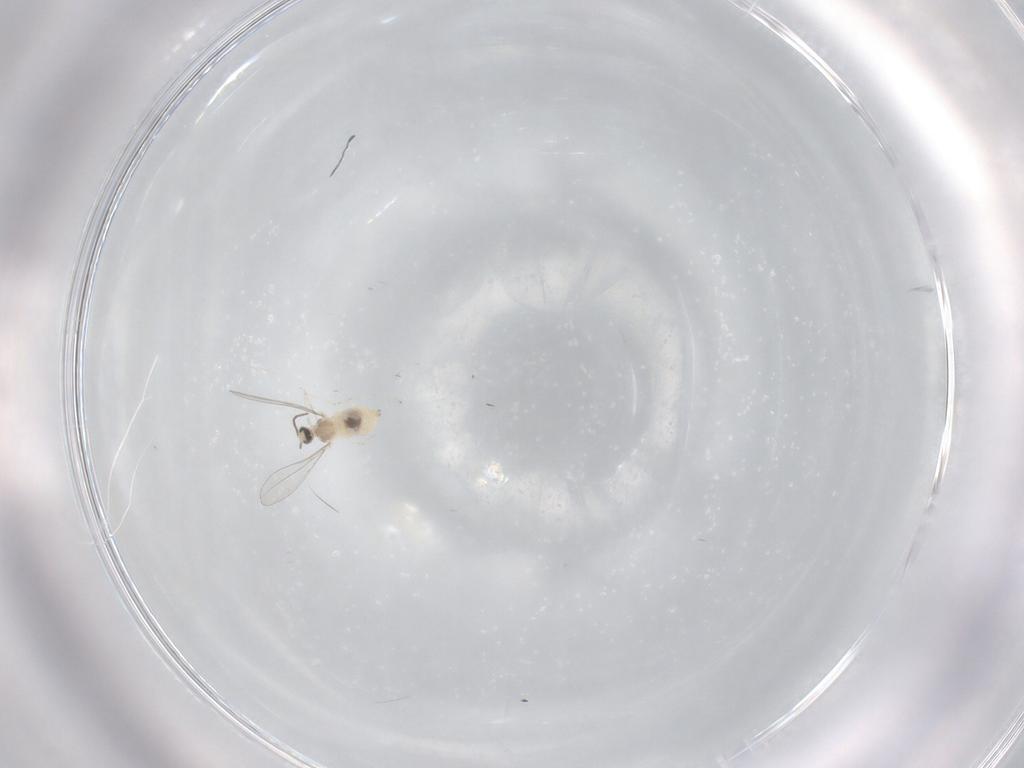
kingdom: Animalia
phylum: Arthropoda
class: Insecta
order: Diptera
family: Cecidomyiidae
